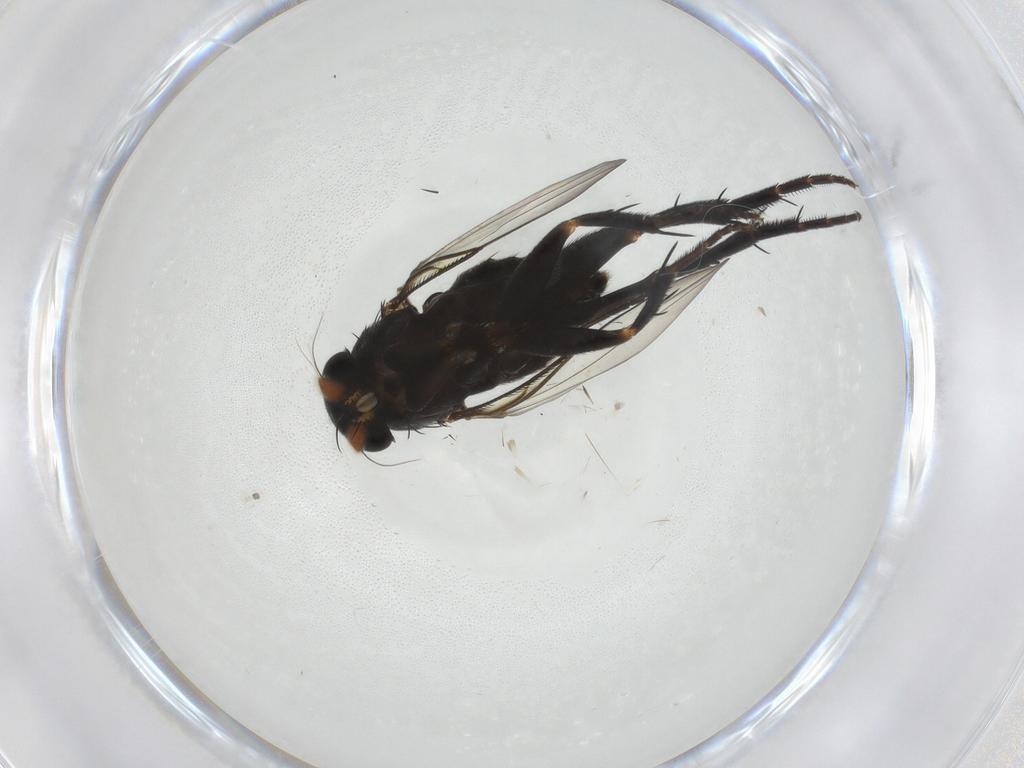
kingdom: Animalia
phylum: Arthropoda
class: Insecta
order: Diptera
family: Phoridae
